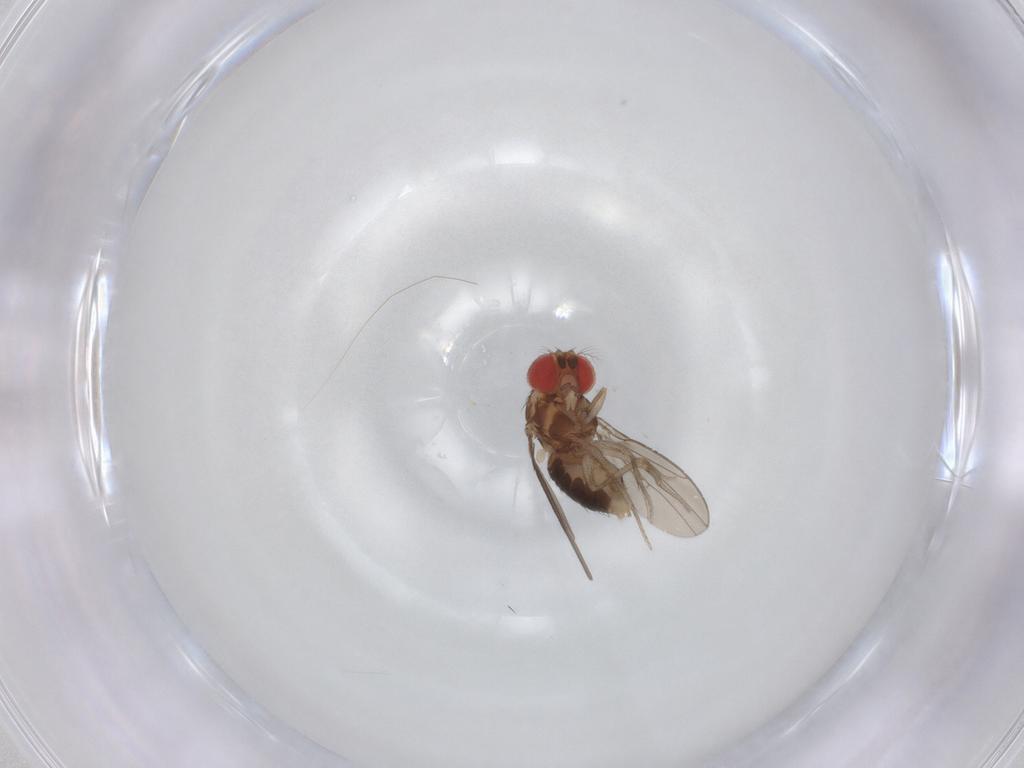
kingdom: Animalia
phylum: Arthropoda
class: Insecta
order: Diptera
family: Drosophilidae
